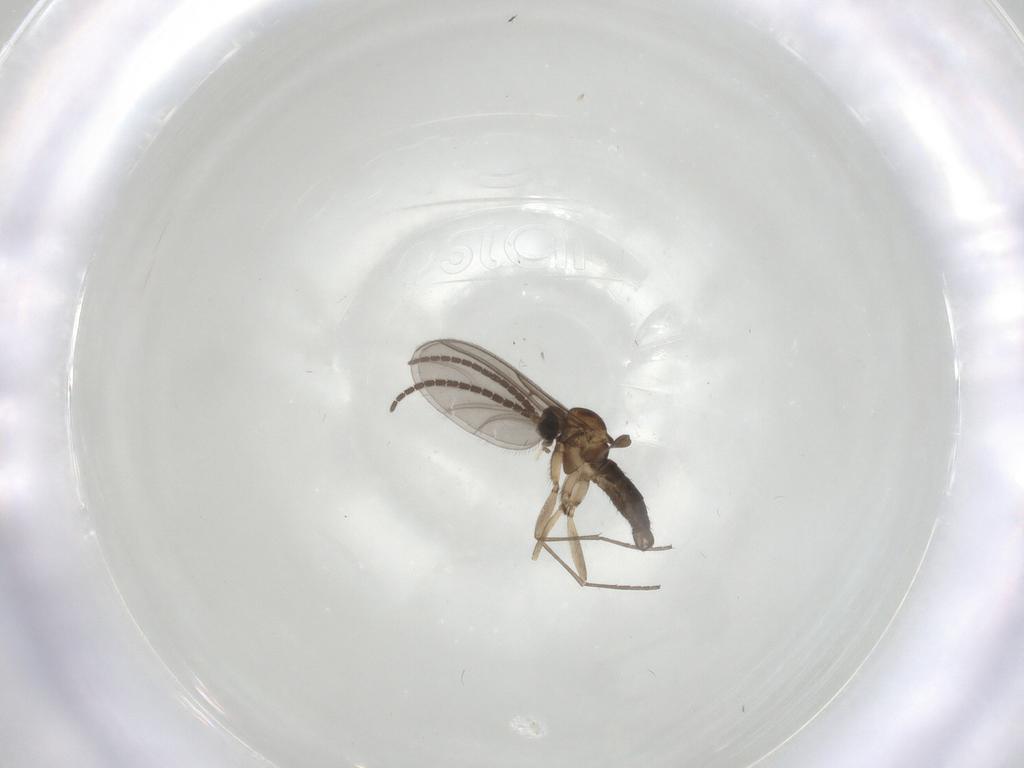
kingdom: Animalia
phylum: Arthropoda
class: Insecta
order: Diptera
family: Sciaridae
